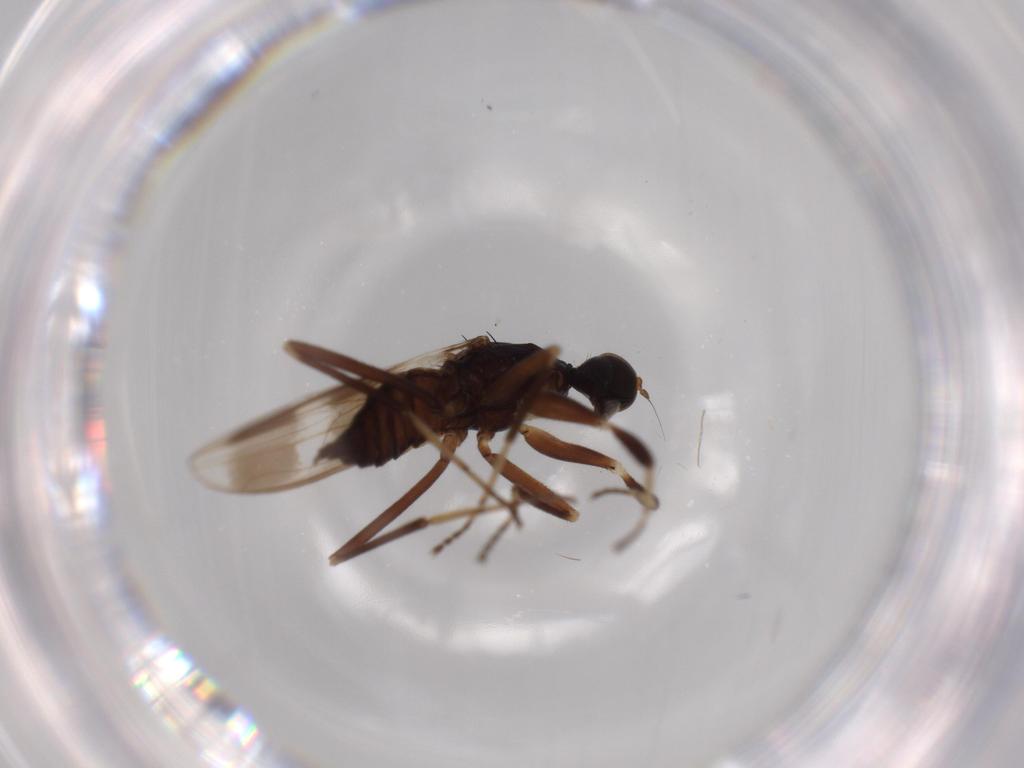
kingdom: Animalia
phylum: Arthropoda
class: Insecta
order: Diptera
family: Hybotidae
